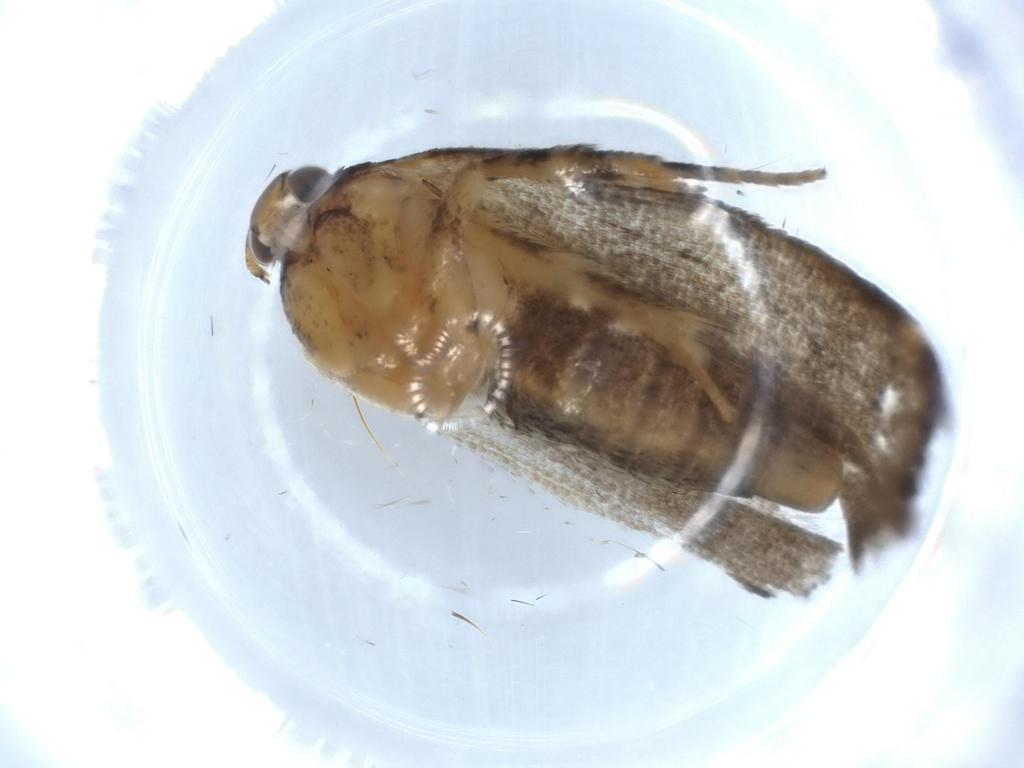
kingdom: Animalia
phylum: Arthropoda
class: Insecta
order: Lepidoptera
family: Gelechiidae
